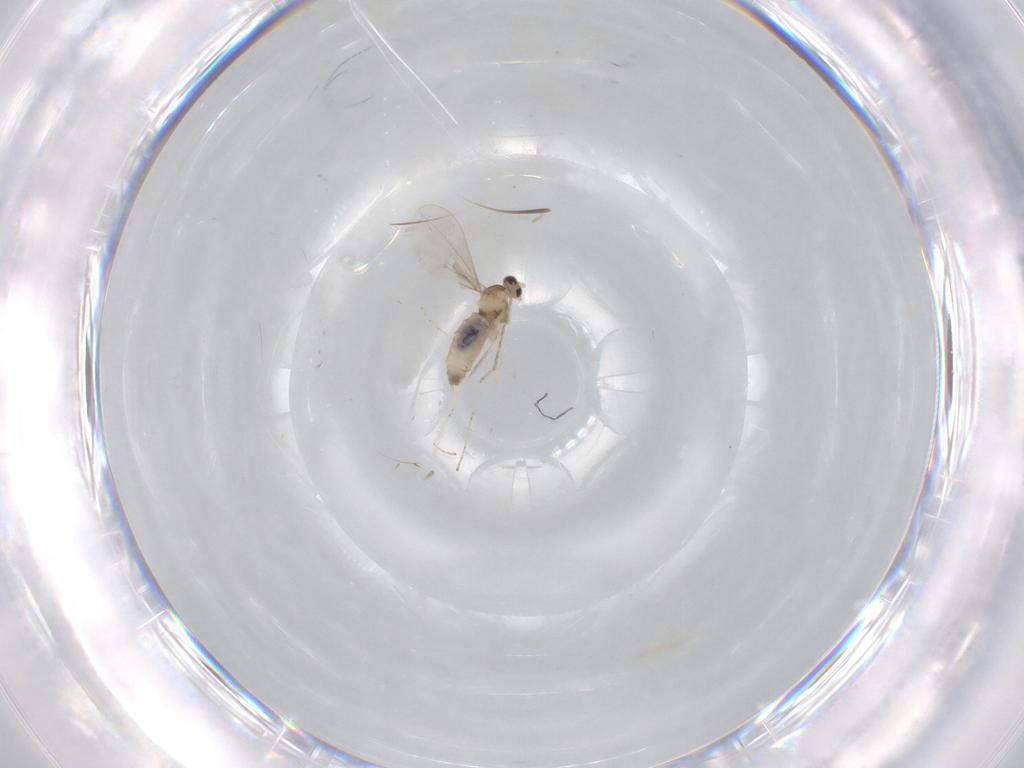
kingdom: Animalia
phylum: Arthropoda
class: Insecta
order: Diptera
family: Cecidomyiidae
